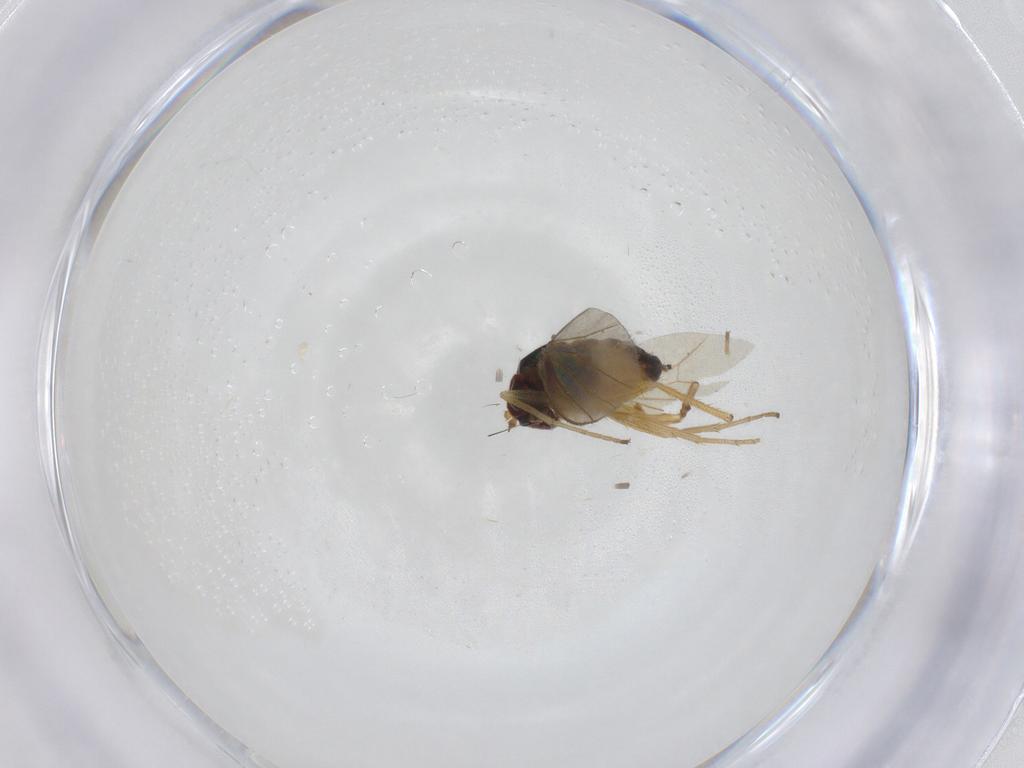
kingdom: Animalia
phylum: Arthropoda
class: Insecta
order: Diptera
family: Dolichopodidae
